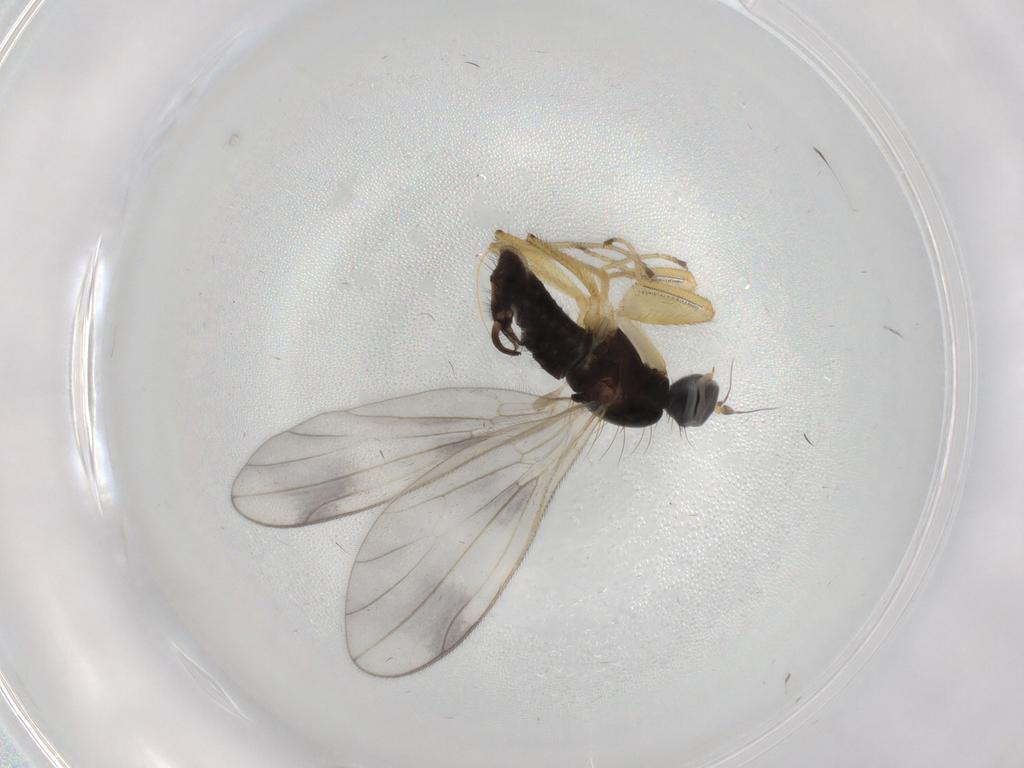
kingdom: Animalia
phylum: Arthropoda
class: Insecta
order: Diptera
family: Empididae
